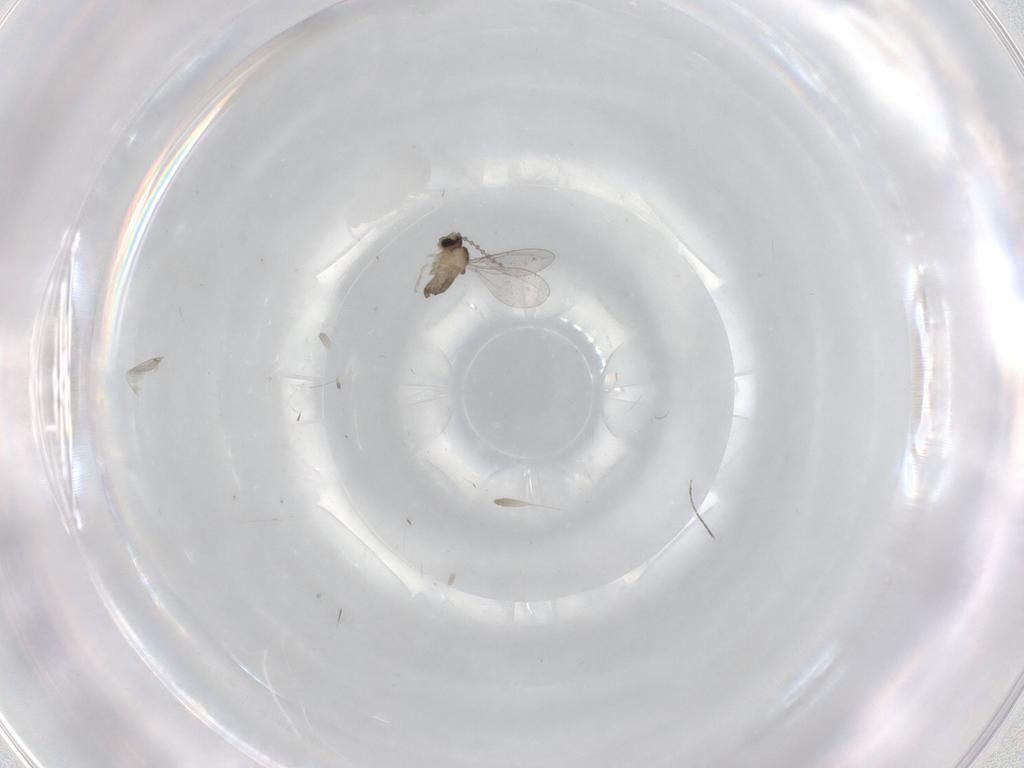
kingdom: Animalia
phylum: Arthropoda
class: Insecta
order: Diptera
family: Cecidomyiidae
